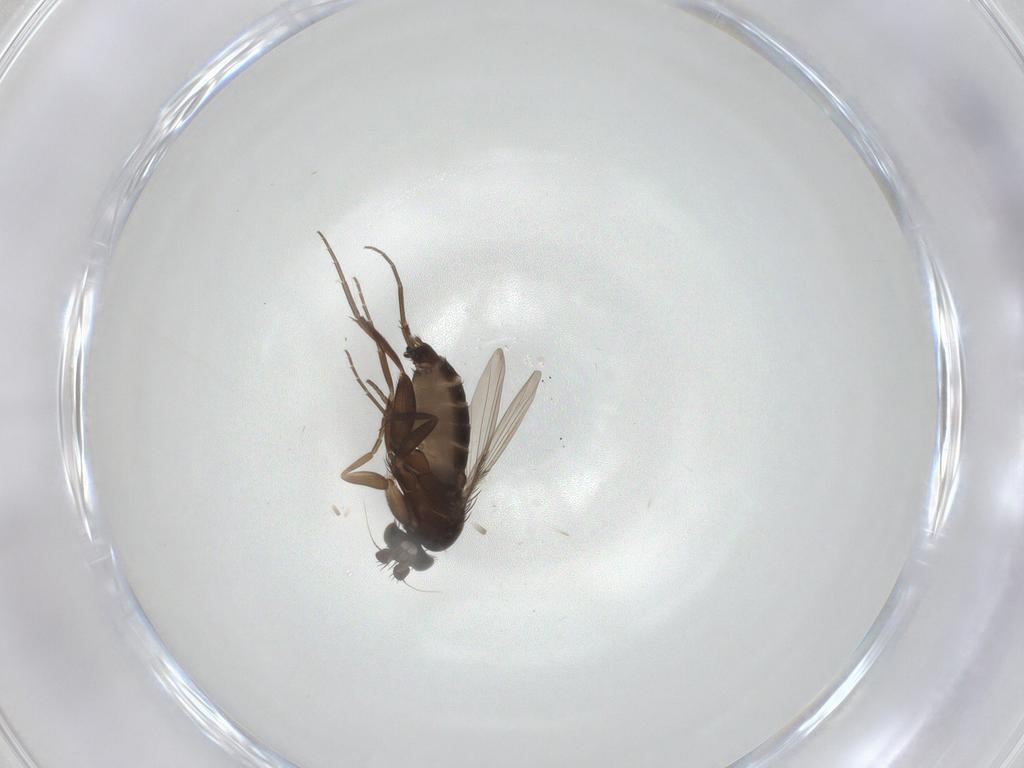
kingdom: Animalia
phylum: Arthropoda
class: Insecta
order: Diptera
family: Phoridae
